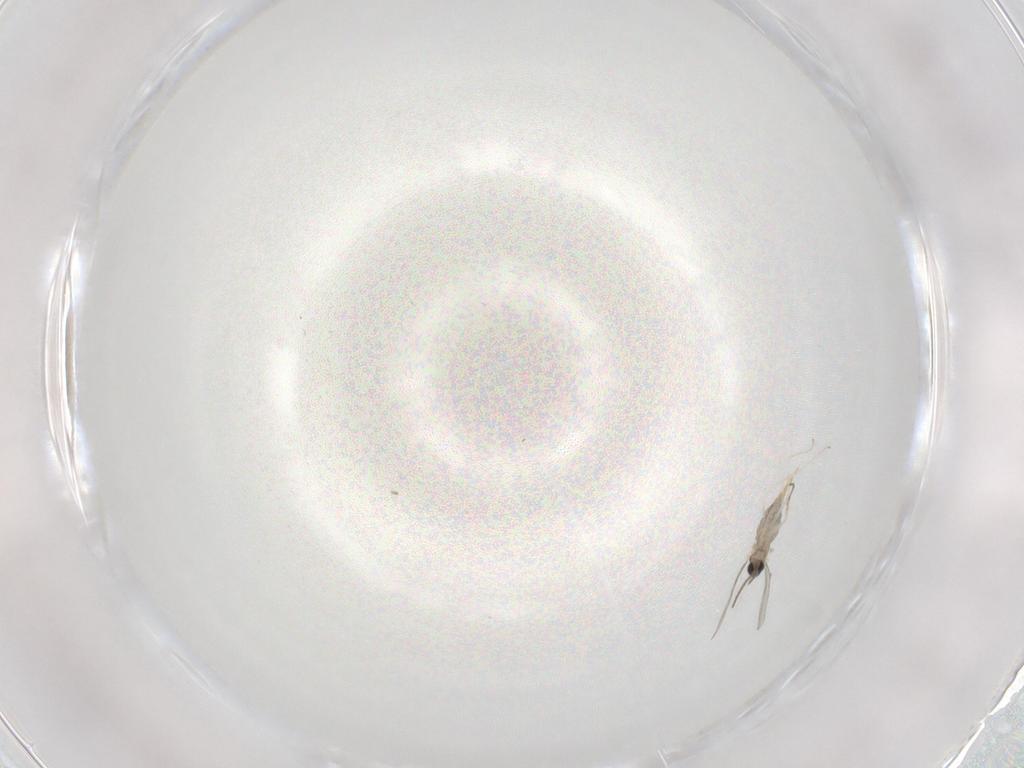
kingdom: Animalia
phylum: Arthropoda
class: Insecta
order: Diptera
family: Cecidomyiidae
